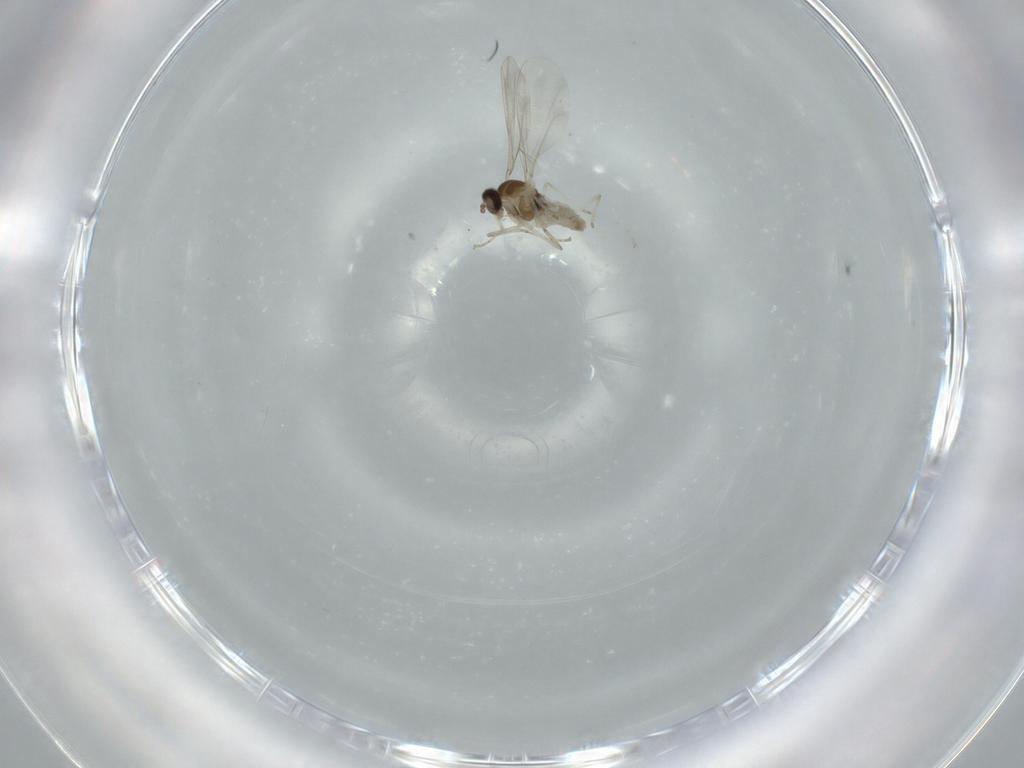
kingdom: Animalia
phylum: Arthropoda
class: Insecta
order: Diptera
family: Cecidomyiidae
